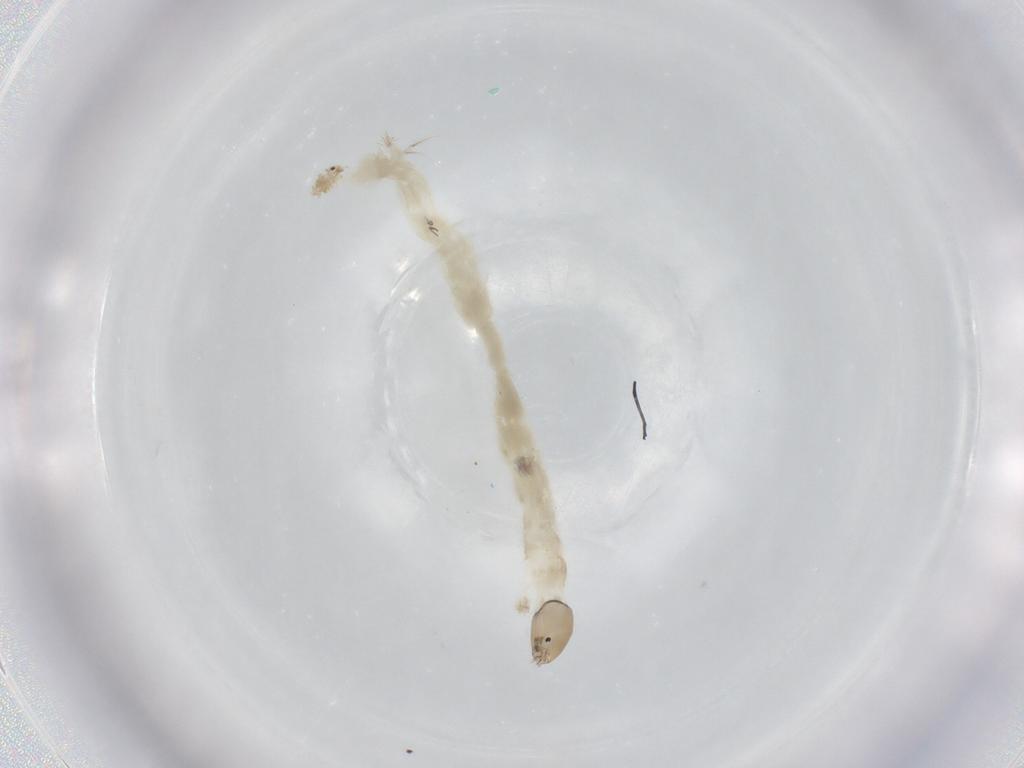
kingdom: Animalia
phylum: Arthropoda
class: Insecta
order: Diptera
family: Chironomidae
